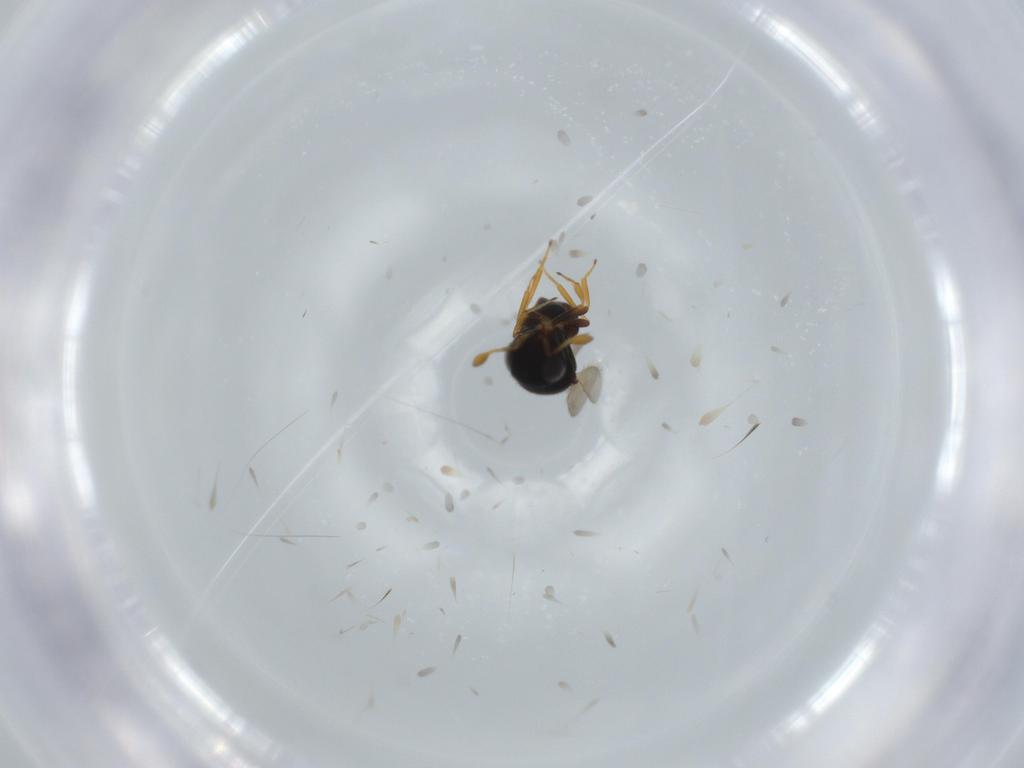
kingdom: Animalia
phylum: Arthropoda
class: Insecta
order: Hymenoptera
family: Scelionidae
